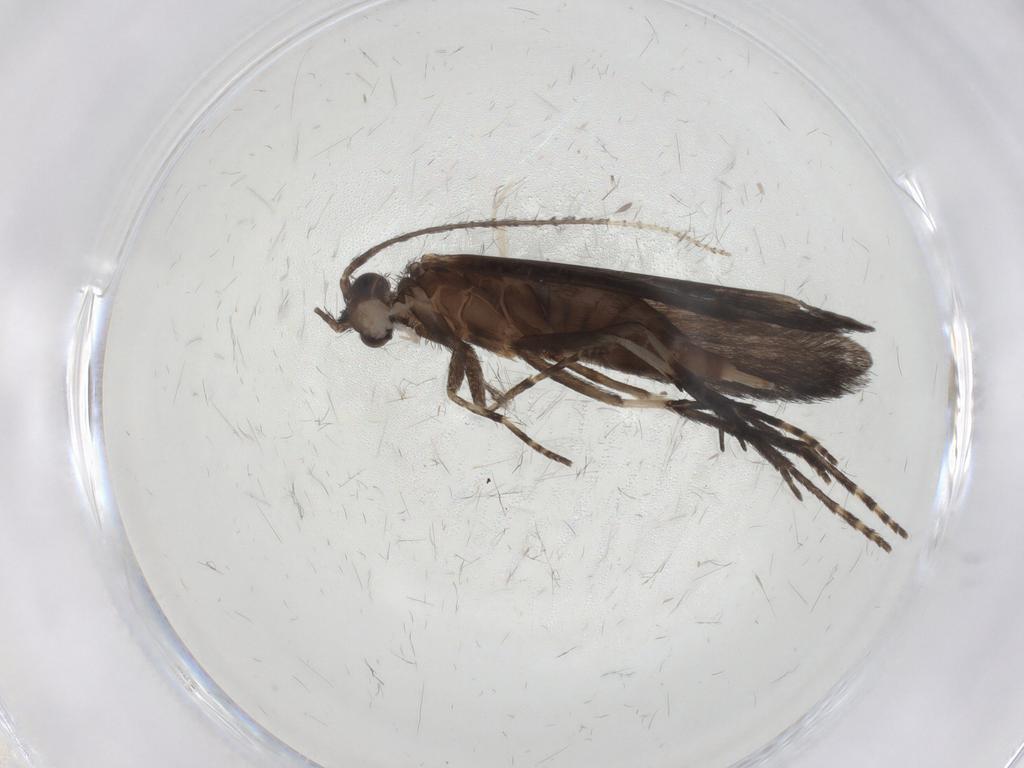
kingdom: Animalia
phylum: Arthropoda
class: Insecta
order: Trichoptera
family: Xiphocentronidae
